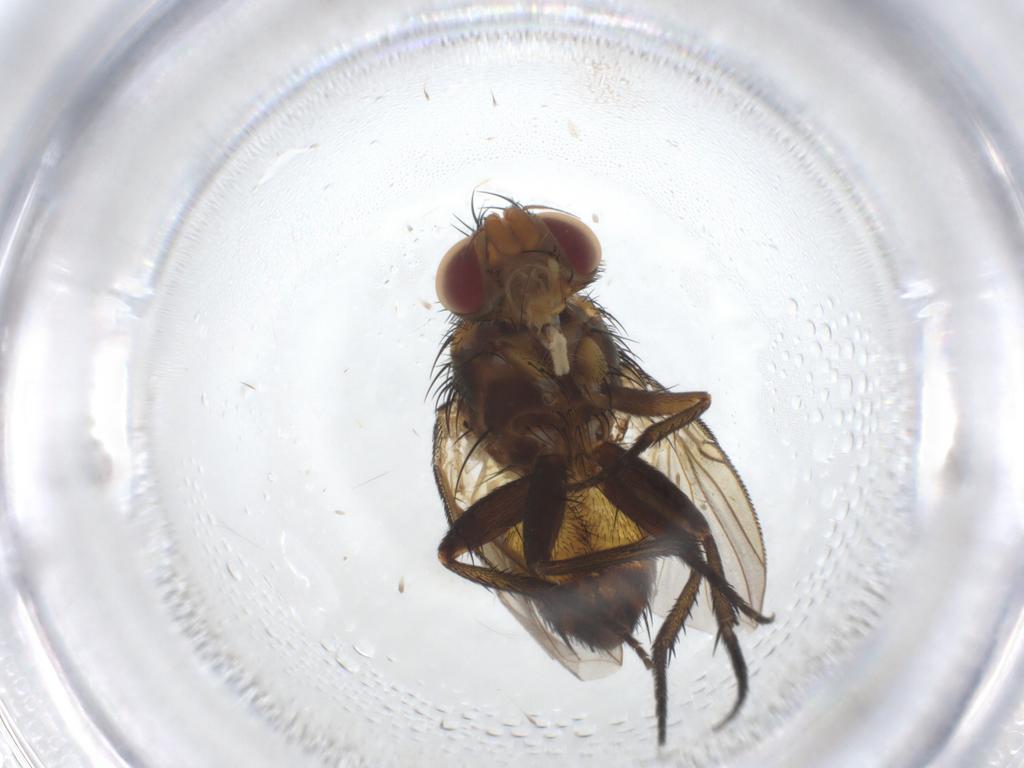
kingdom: Animalia
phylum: Arthropoda
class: Insecta
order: Diptera
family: Tachinidae
